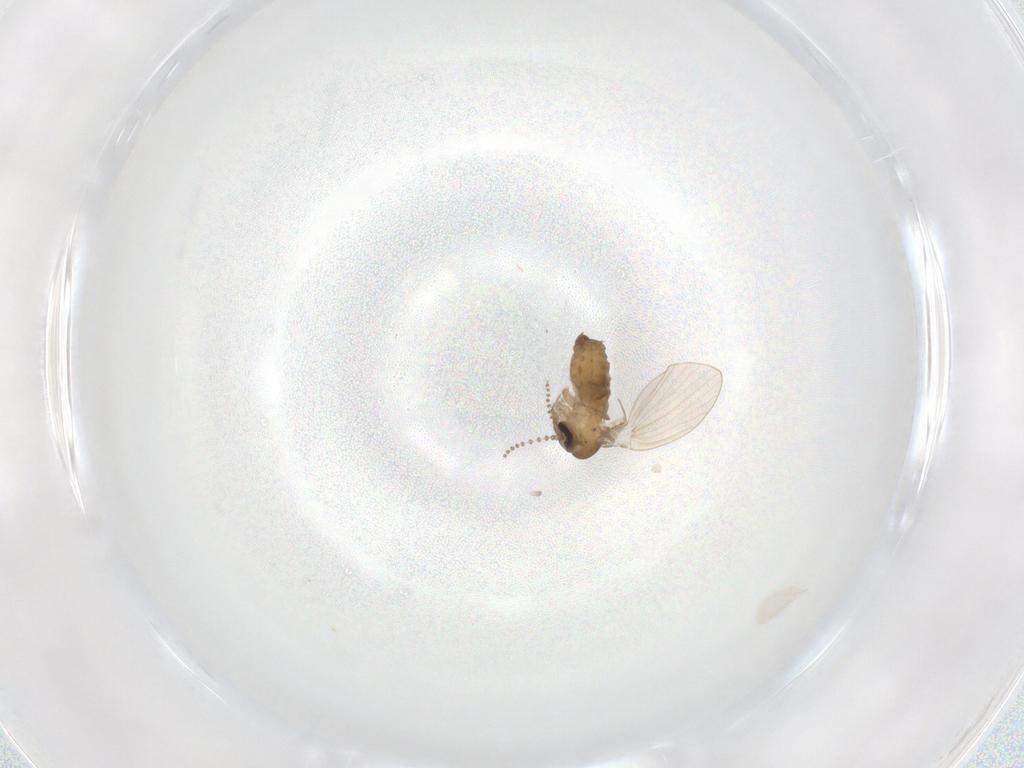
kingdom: Animalia
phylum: Arthropoda
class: Insecta
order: Diptera
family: Psychodidae
